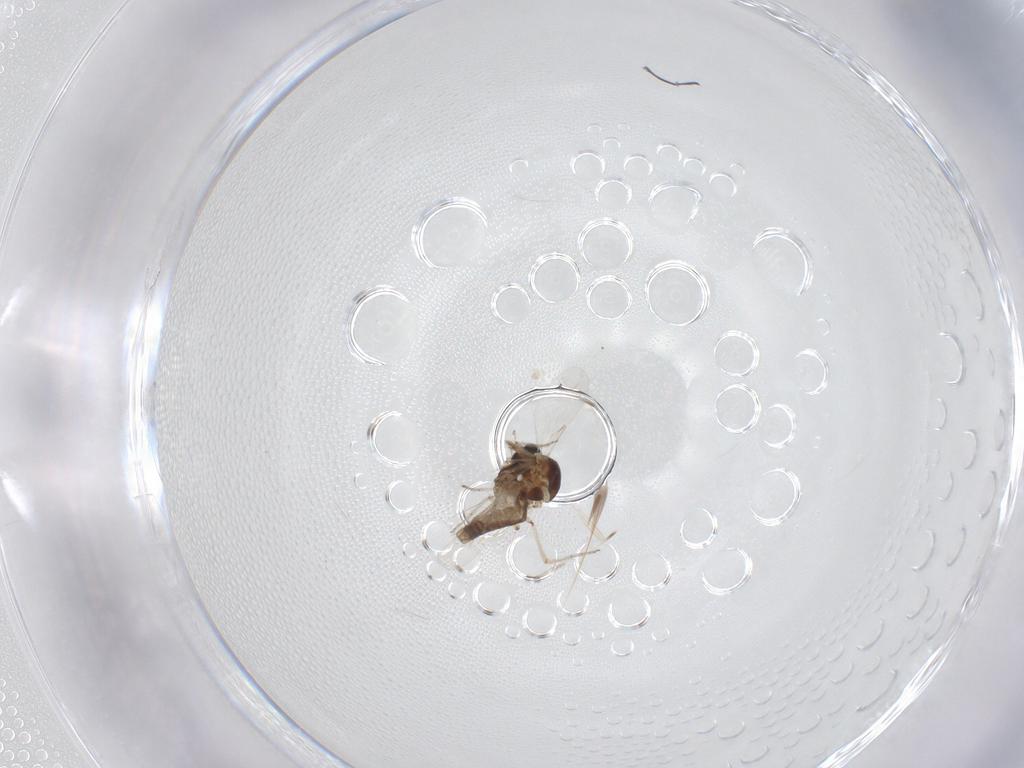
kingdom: Animalia
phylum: Arthropoda
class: Insecta
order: Diptera
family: Ceratopogonidae
